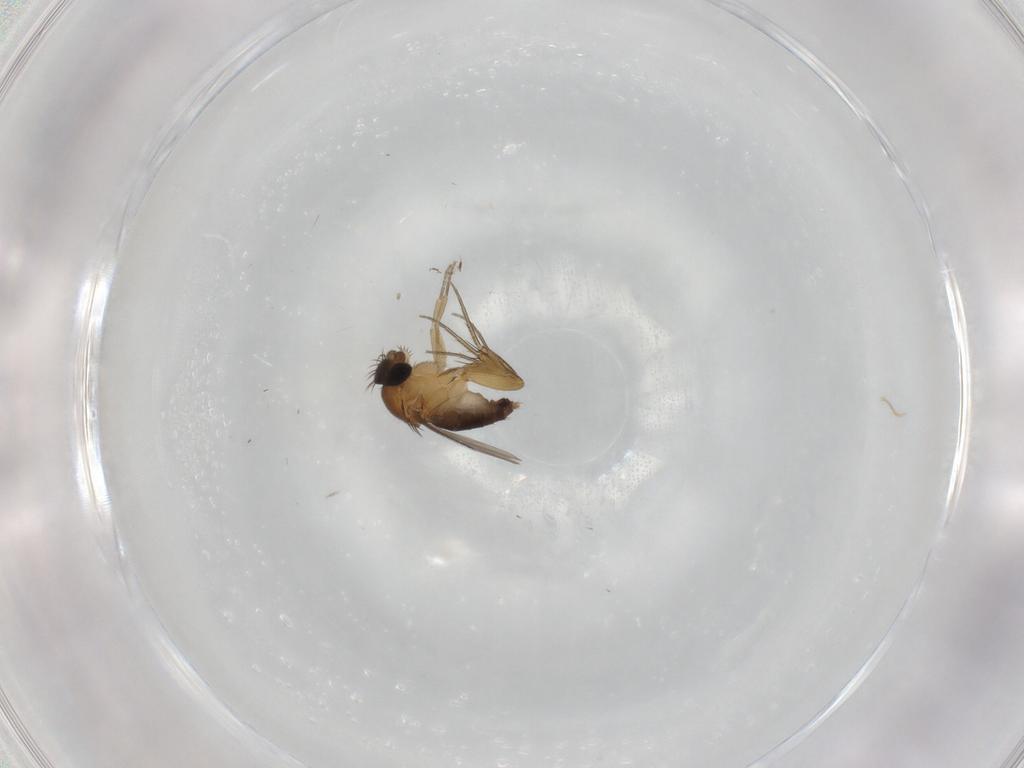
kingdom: Animalia
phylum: Arthropoda
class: Insecta
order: Diptera
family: Phoridae
